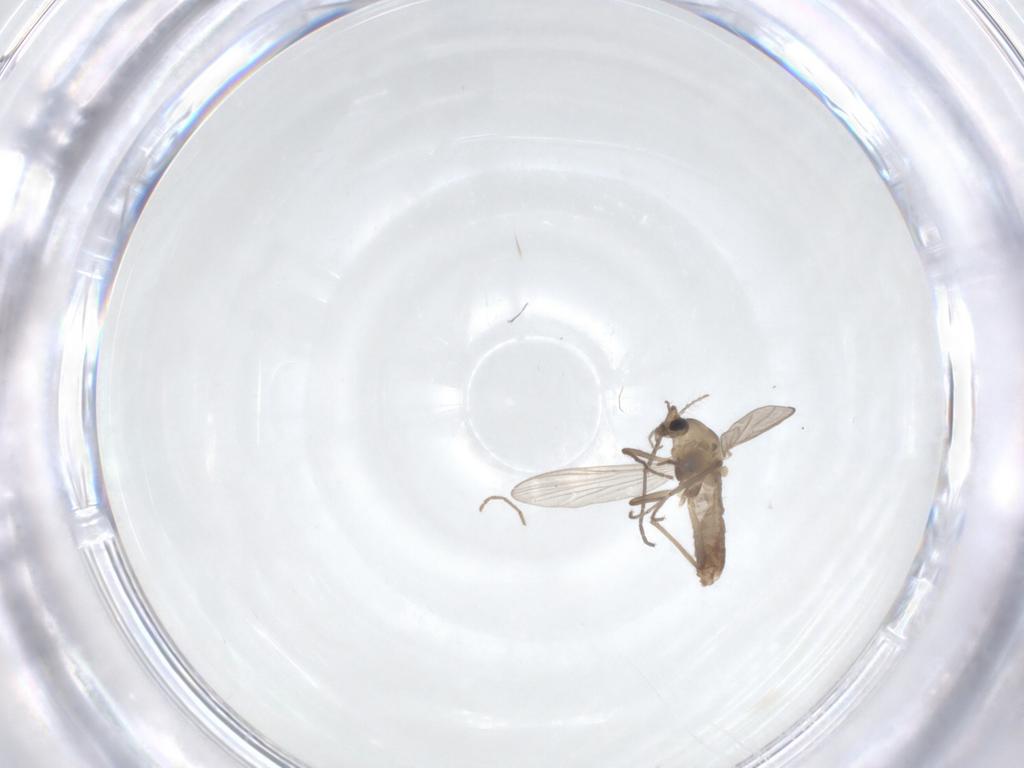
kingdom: Animalia
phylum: Arthropoda
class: Insecta
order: Diptera
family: Chironomidae
